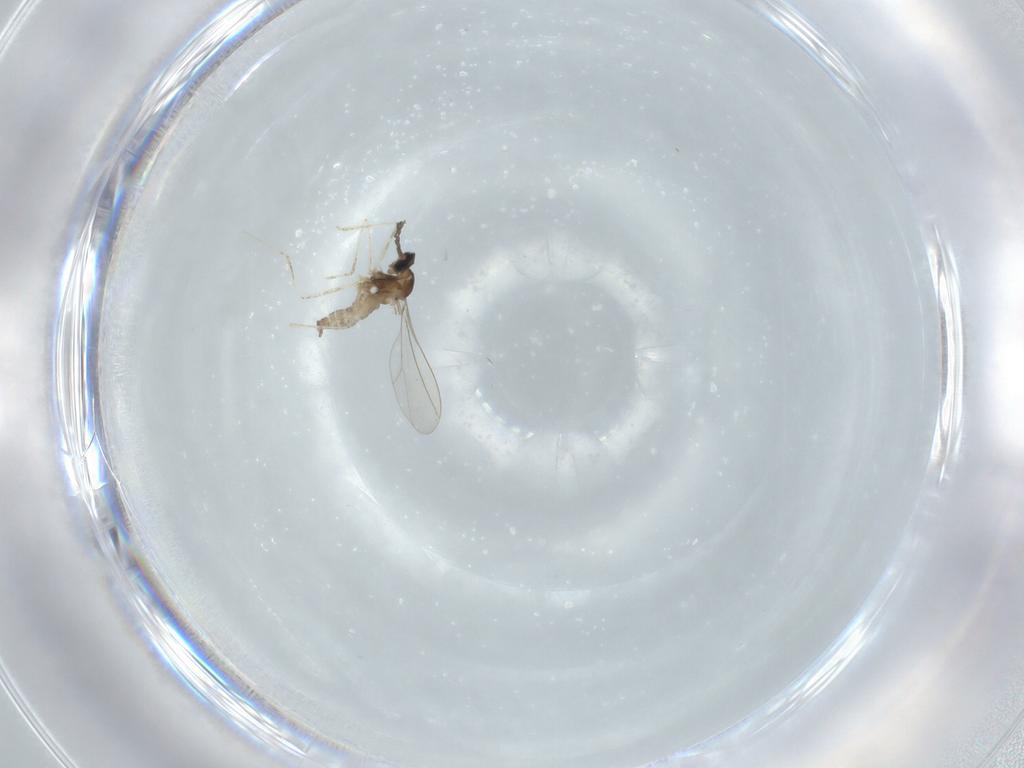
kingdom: Animalia
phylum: Arthropoda
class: Insecta
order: Diptera
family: Cecidomyiidae
